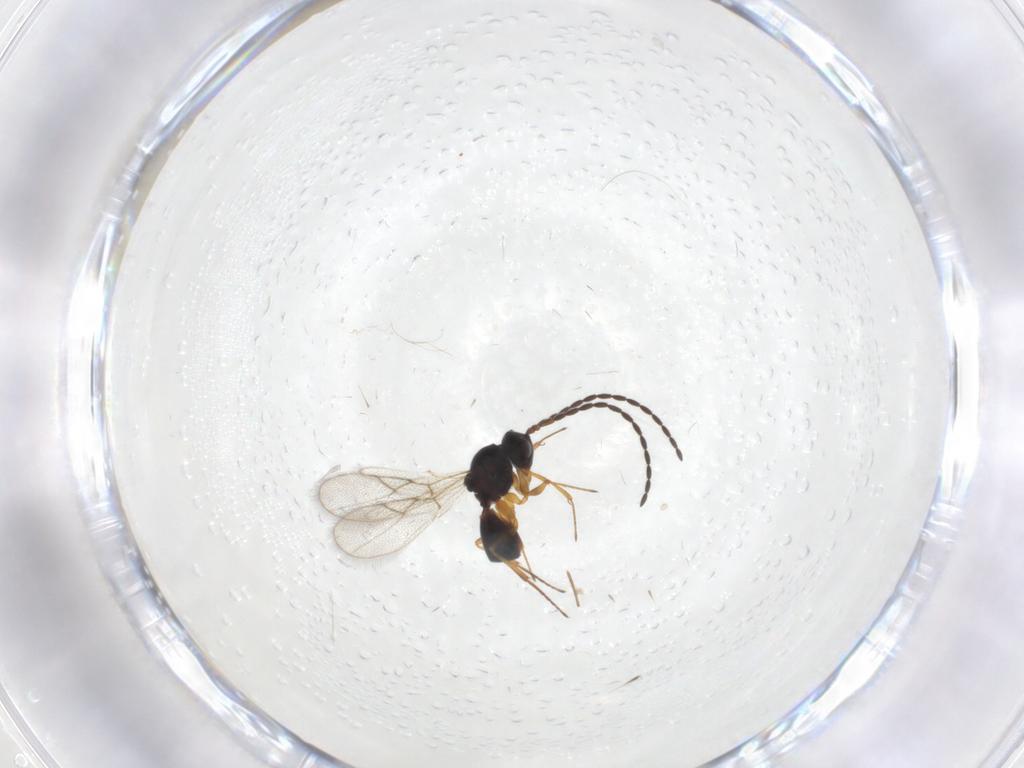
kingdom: Animalia
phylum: Arthropoda
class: Insecta
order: Hymenoptera
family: Figitidae
